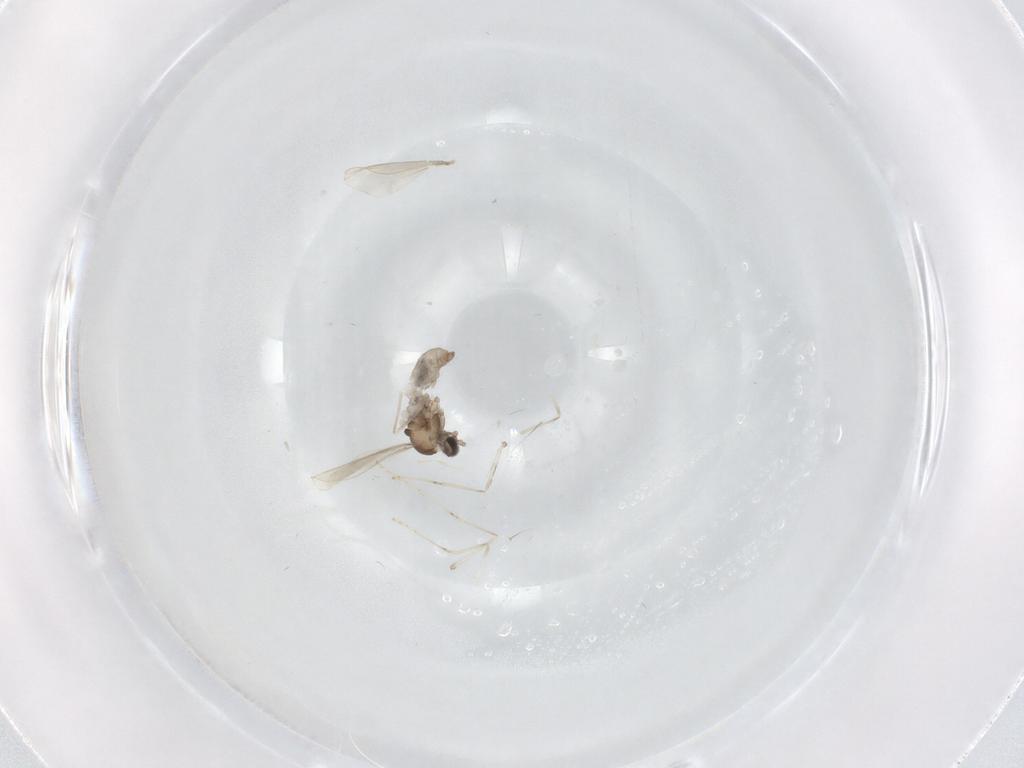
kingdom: Animalia
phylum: Arthropoda
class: Insecta
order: Diptera
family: Cecidomyiidae
